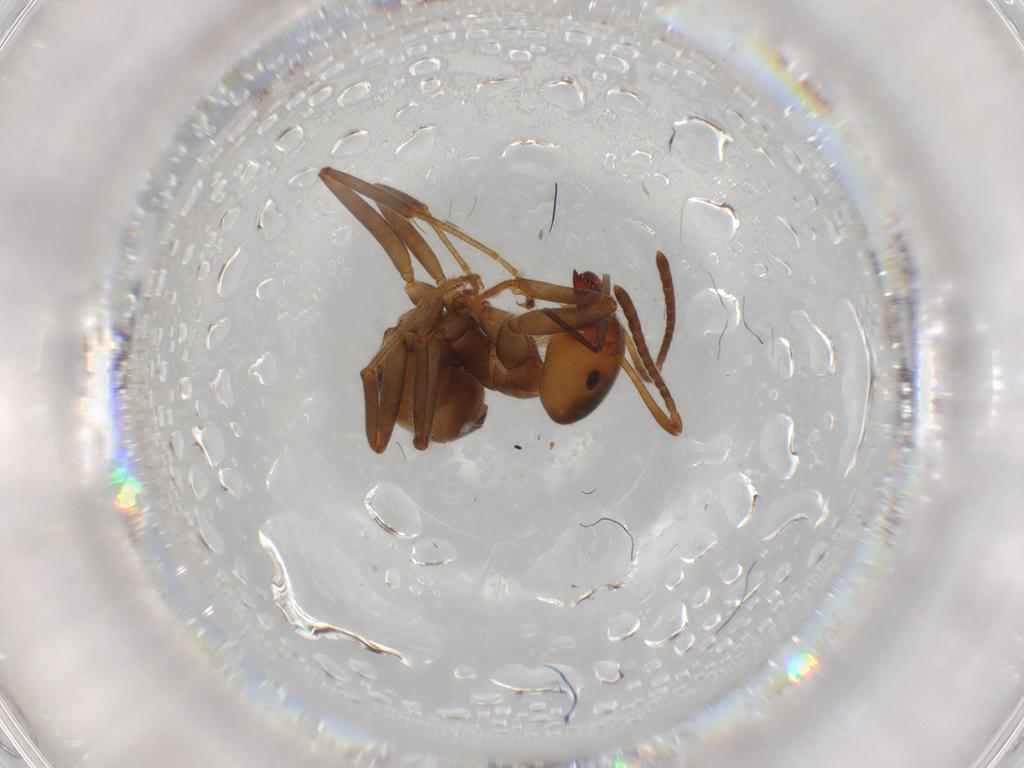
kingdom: Animalia
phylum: Arthropoda
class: Insecta
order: Hymenoptera
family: Formicidae
